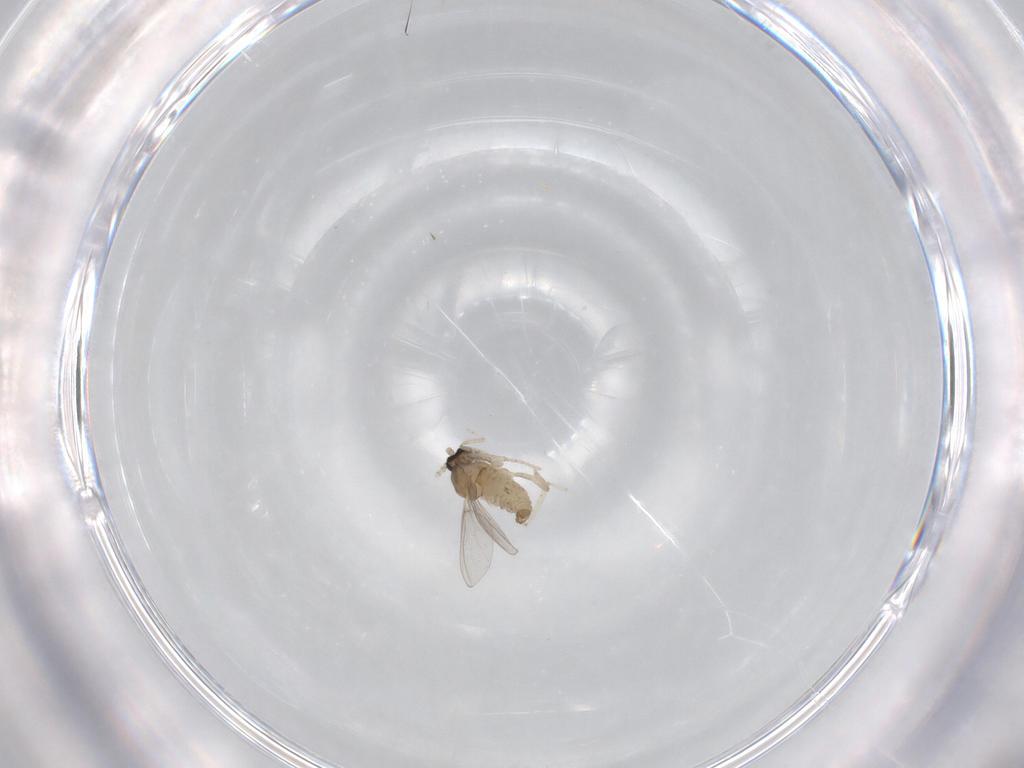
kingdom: Animalia
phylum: Arthropoda
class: Insecta
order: Diptera
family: Cecidomyiidae
